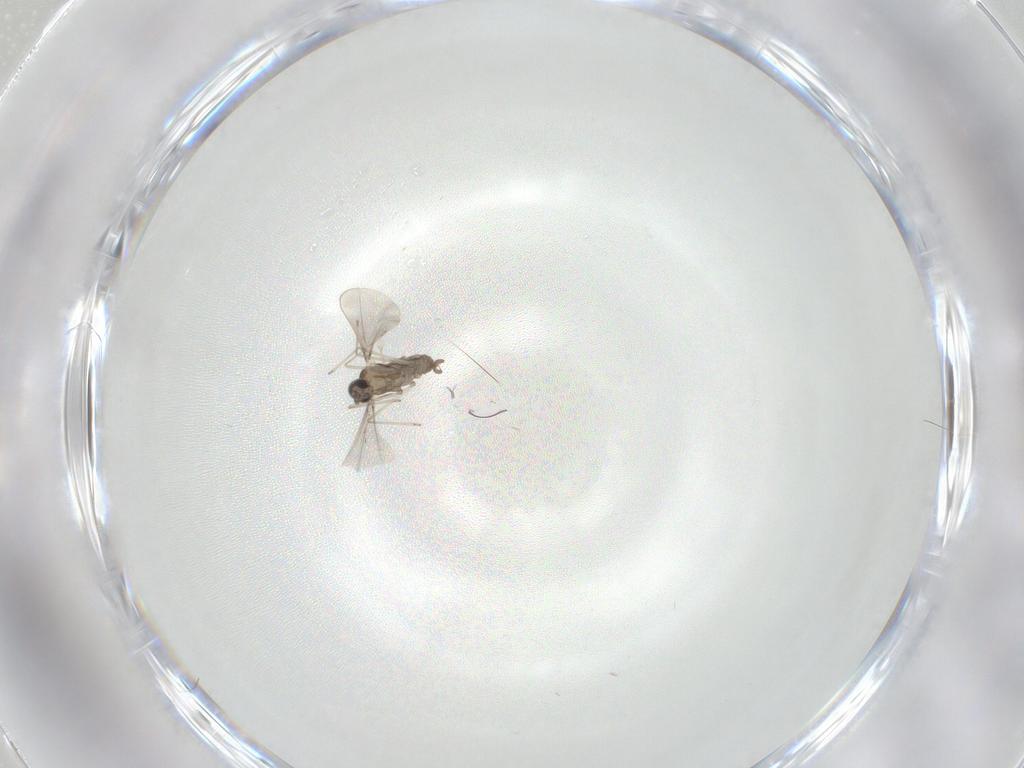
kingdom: Animalia
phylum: Arthropoda
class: Insecta
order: Diptera
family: Cecidomyiidae
